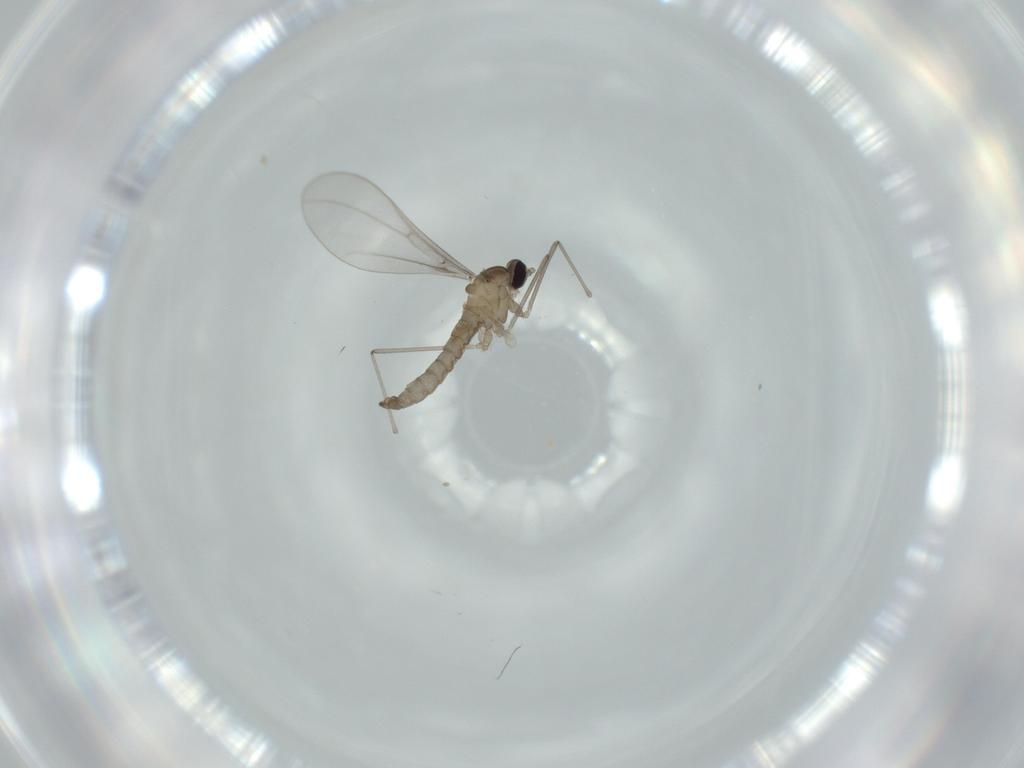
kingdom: Animalia
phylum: Arthropoda
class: Insecta
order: Diptera
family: Cecidomyiidae
